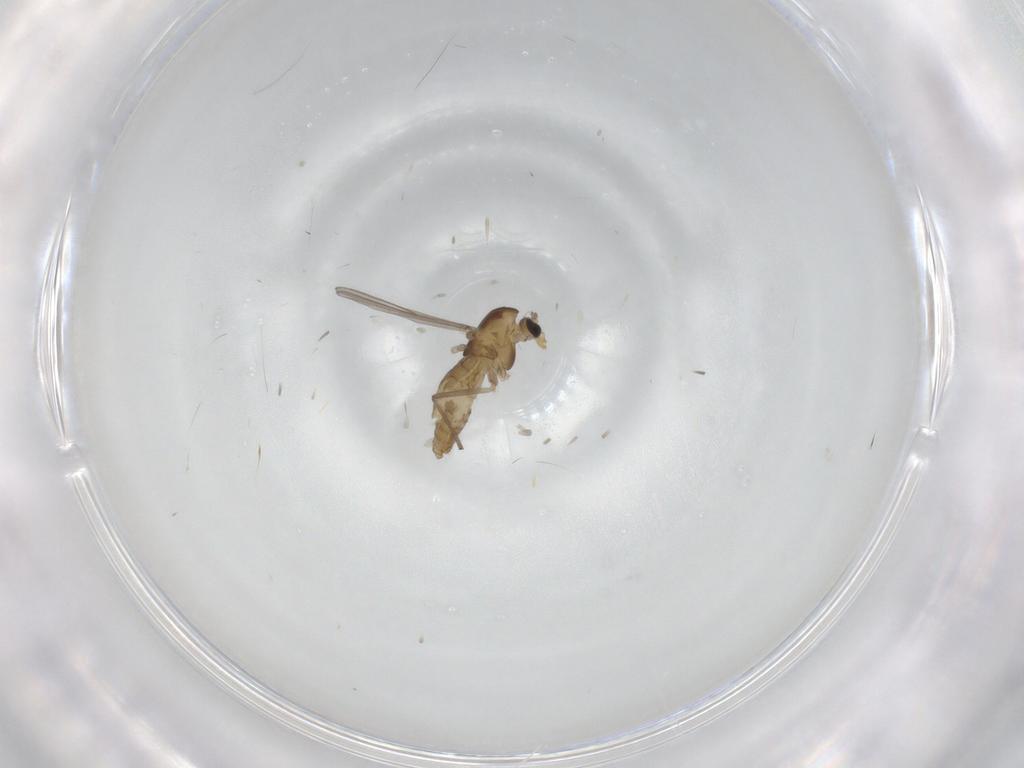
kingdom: Animalia
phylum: Arthropoda
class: Insecta
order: Diptera
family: Chironomidae
